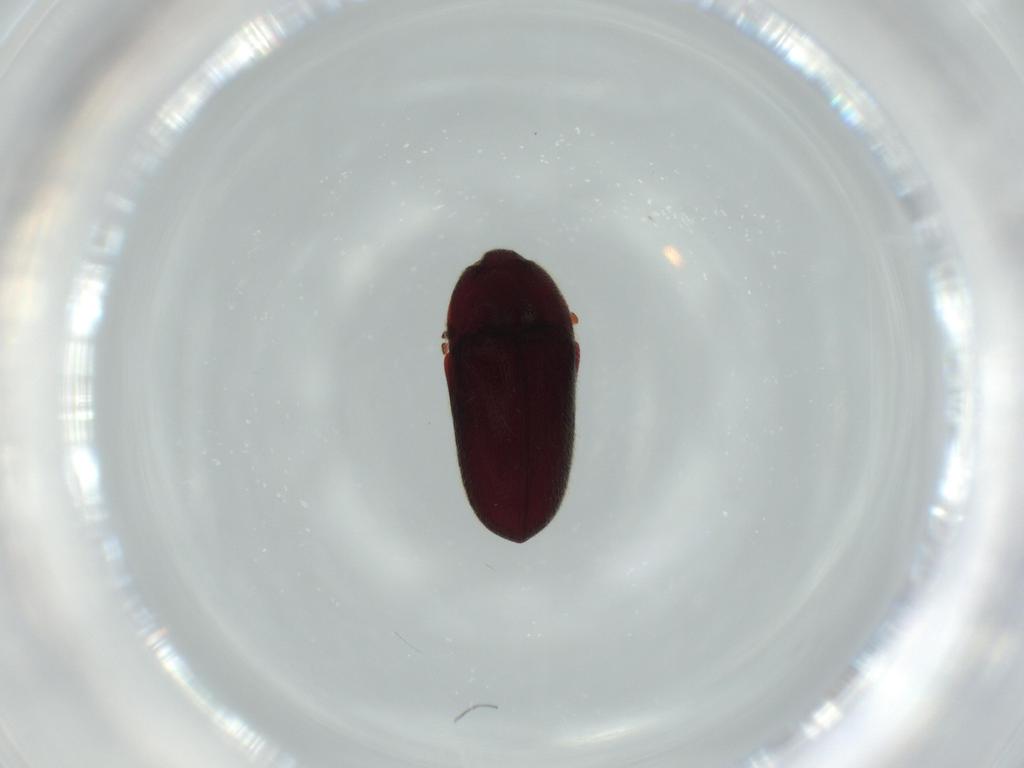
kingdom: Animalia
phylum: Arthropoda
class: Insecta
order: Coleoptera
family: Throscidae
